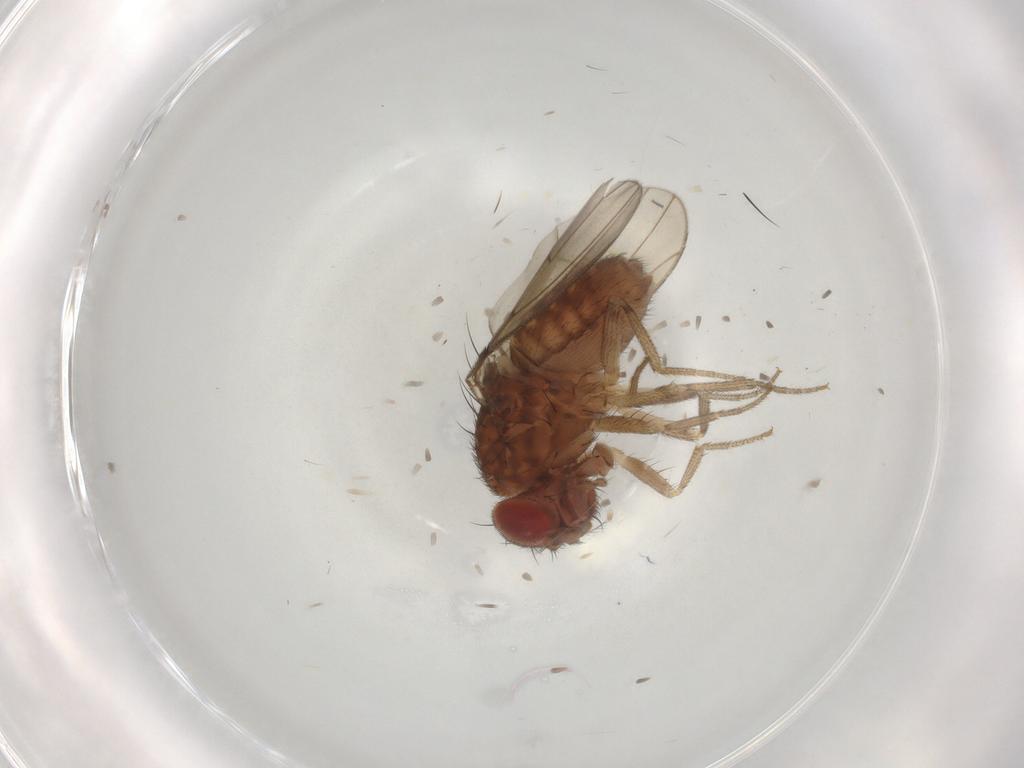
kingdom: Animalia
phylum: Arthropoda
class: Insecta
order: Diptera
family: Drosophilidae
